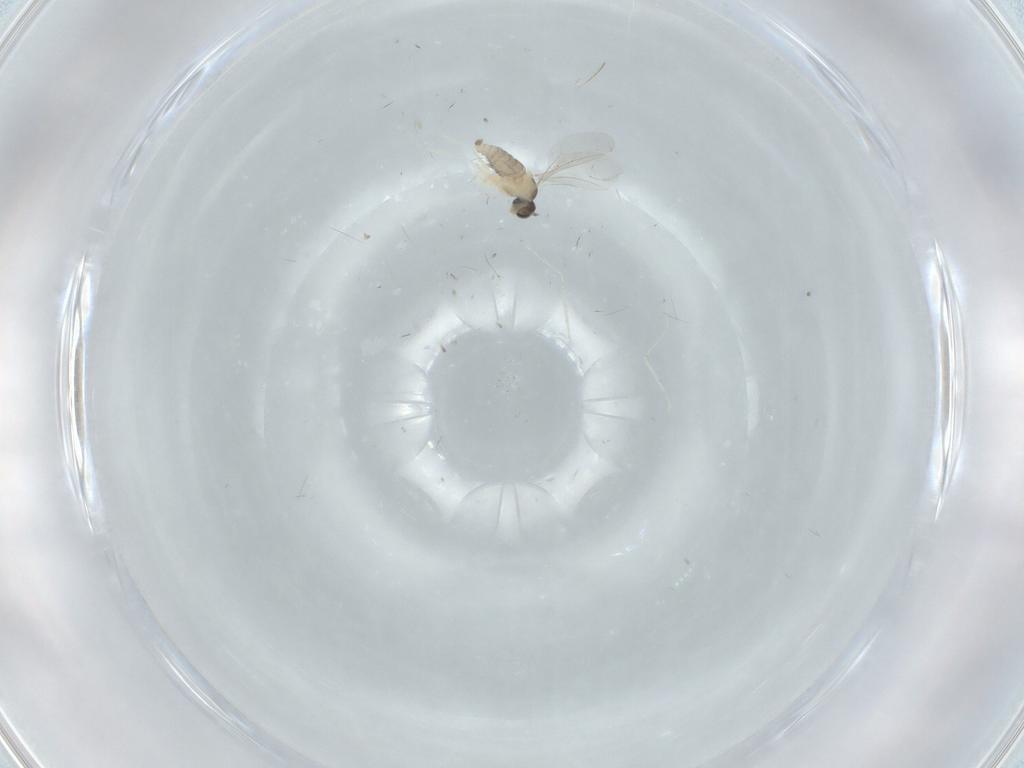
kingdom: Animalia
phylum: Arthropoda
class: Insecta
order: Diptera
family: Cecidomyiidae
